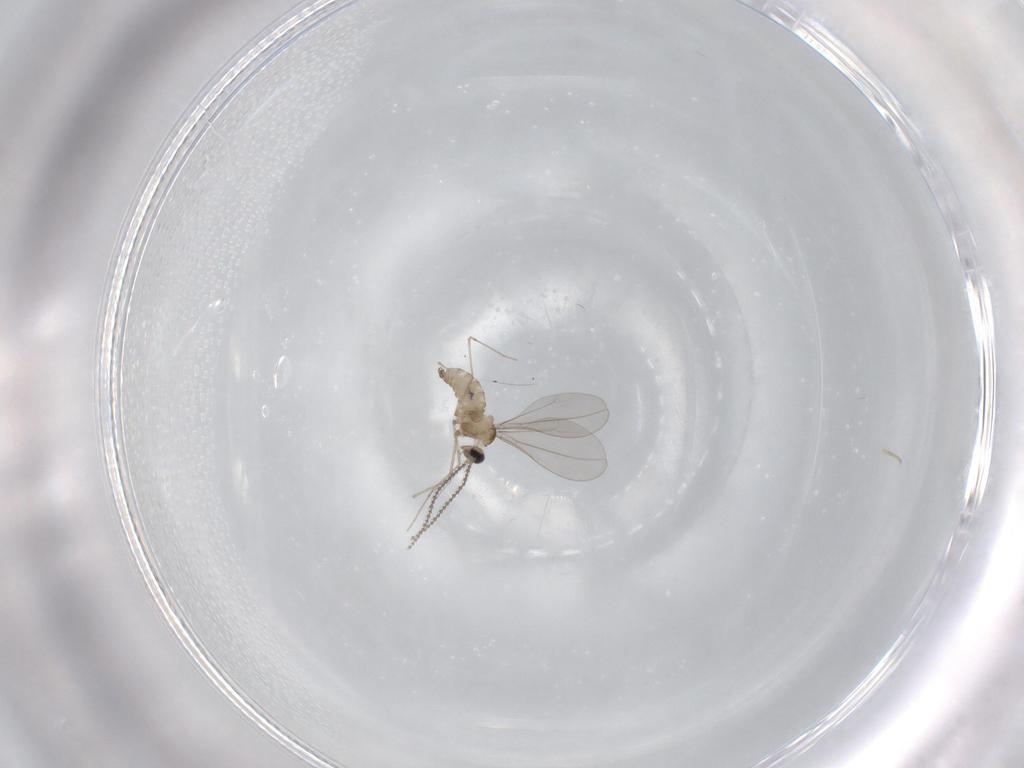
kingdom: Animalia
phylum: Arthropoda
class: Insecta
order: Diptera
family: Cecidomyiidae
